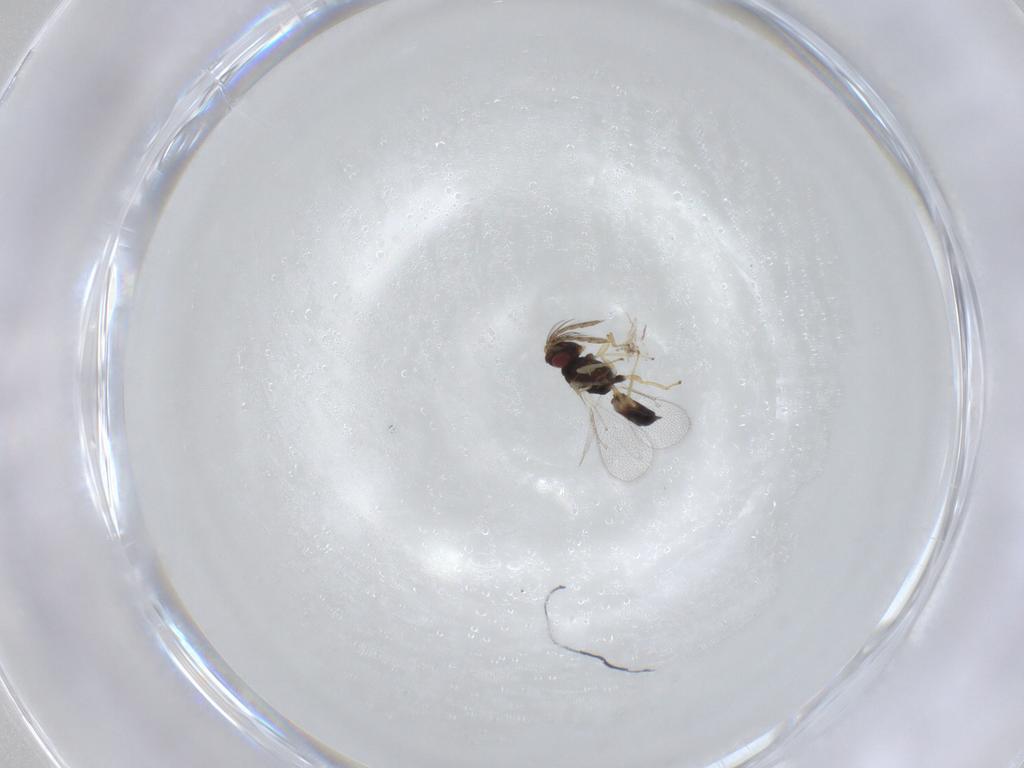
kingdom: Animalia
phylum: Arthropoda
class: Insecta
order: Diptera
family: Cecidomyiidae
